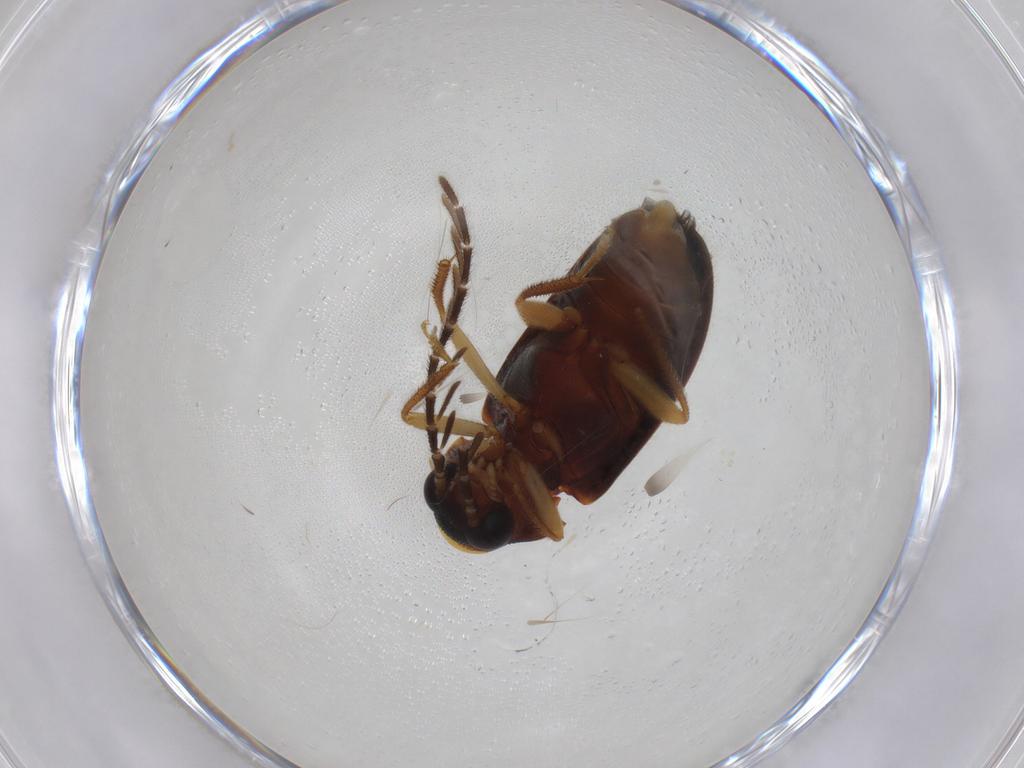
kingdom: Animalia
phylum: Arthropoda
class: Insecta
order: Coleoptera
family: Ptilodactylidae
